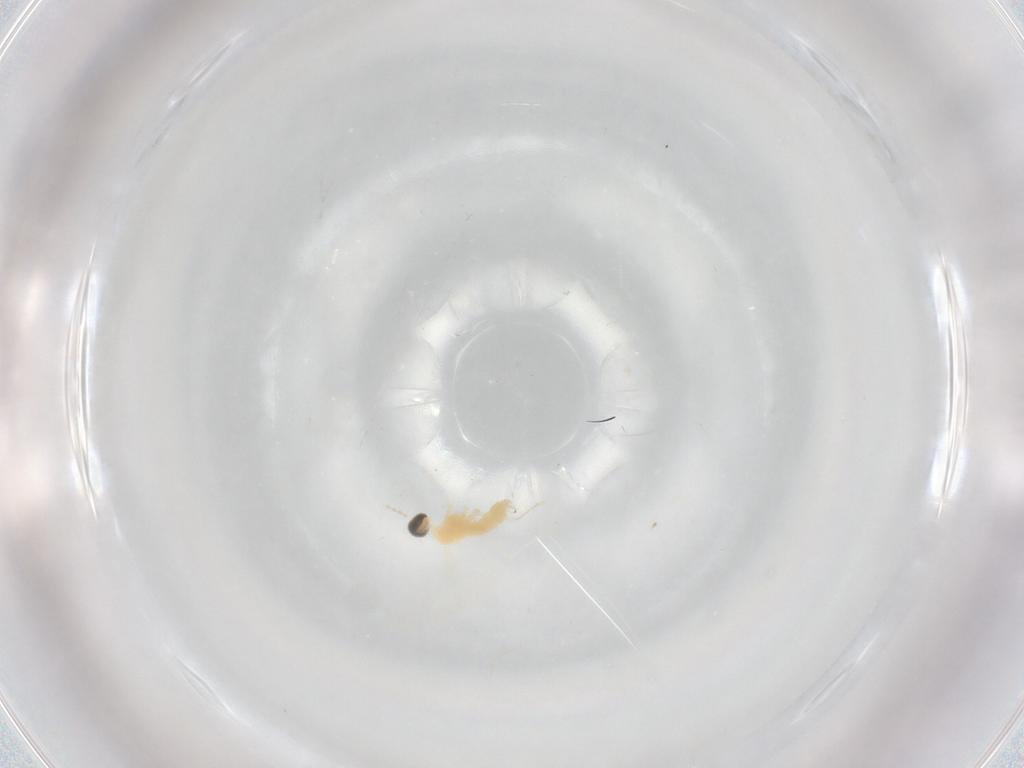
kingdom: Animalia
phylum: Arthropoda
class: Insecta
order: Diptera
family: Cecidomyiidae
